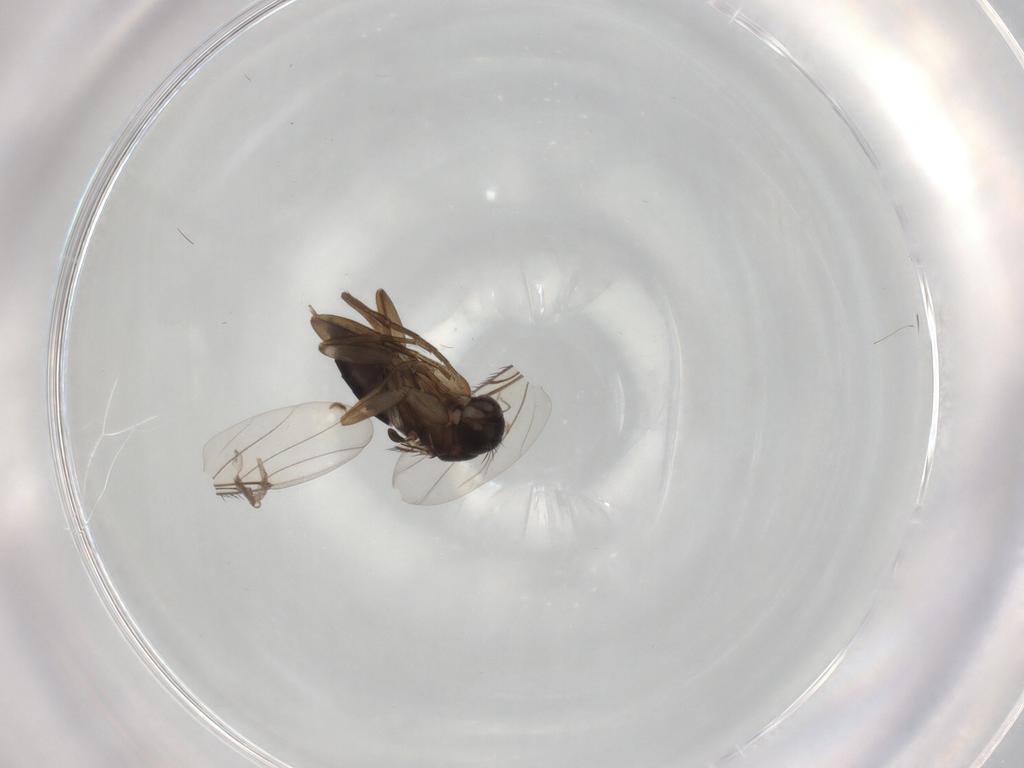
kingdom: Animalia
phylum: Arthropoda
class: Insecta
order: Diptera
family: Phoridae
